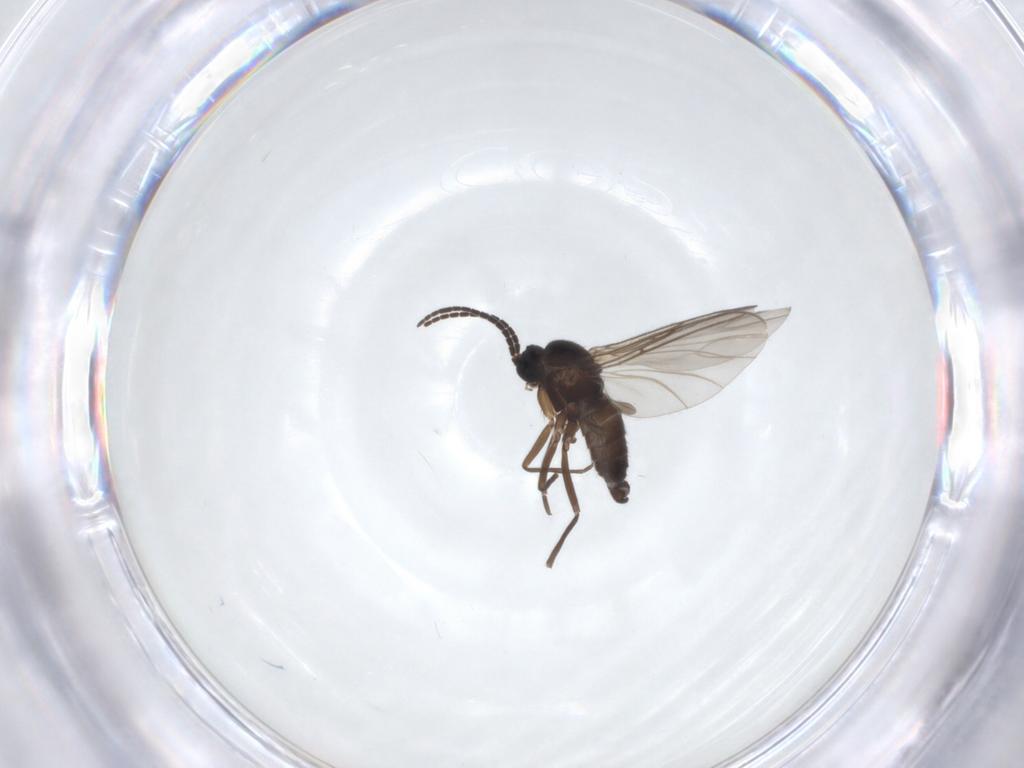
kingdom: Animalia
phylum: Arthropoda
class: Insecta
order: Diptera
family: Sciaridae
